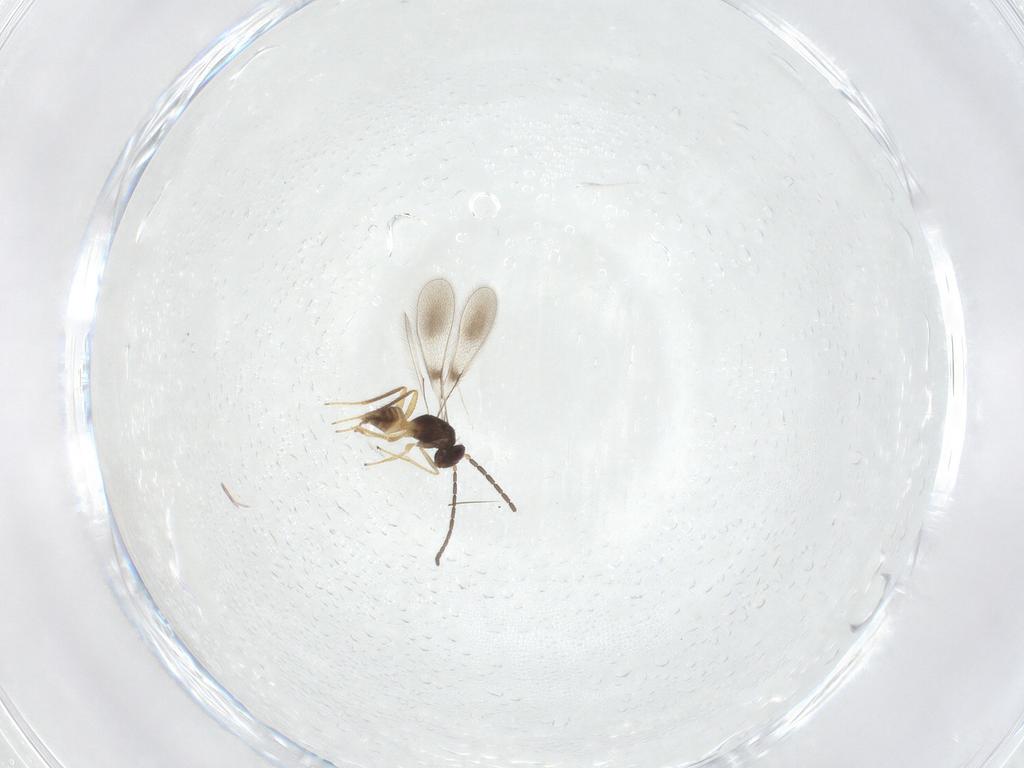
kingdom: Animalia
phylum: Arthropoda
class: Insecta
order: Hymenoptera
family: Mymaridae
